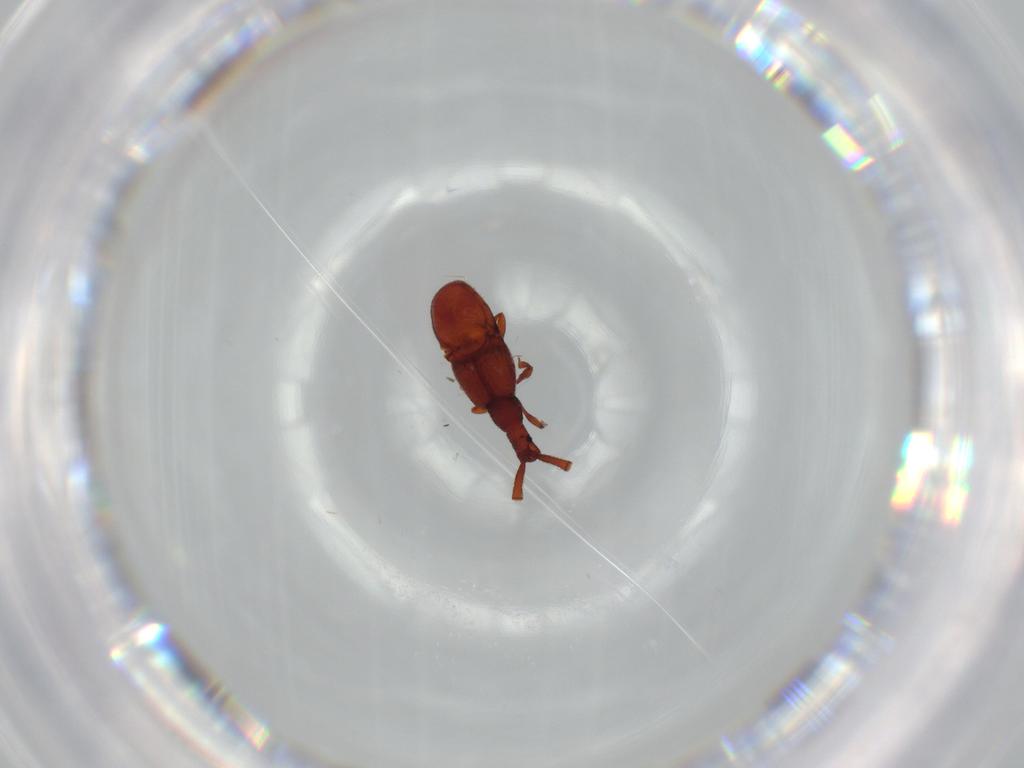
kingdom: Animalia
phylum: Arthropoda
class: Insecta
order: Coleoptera
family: Staphylinidae
